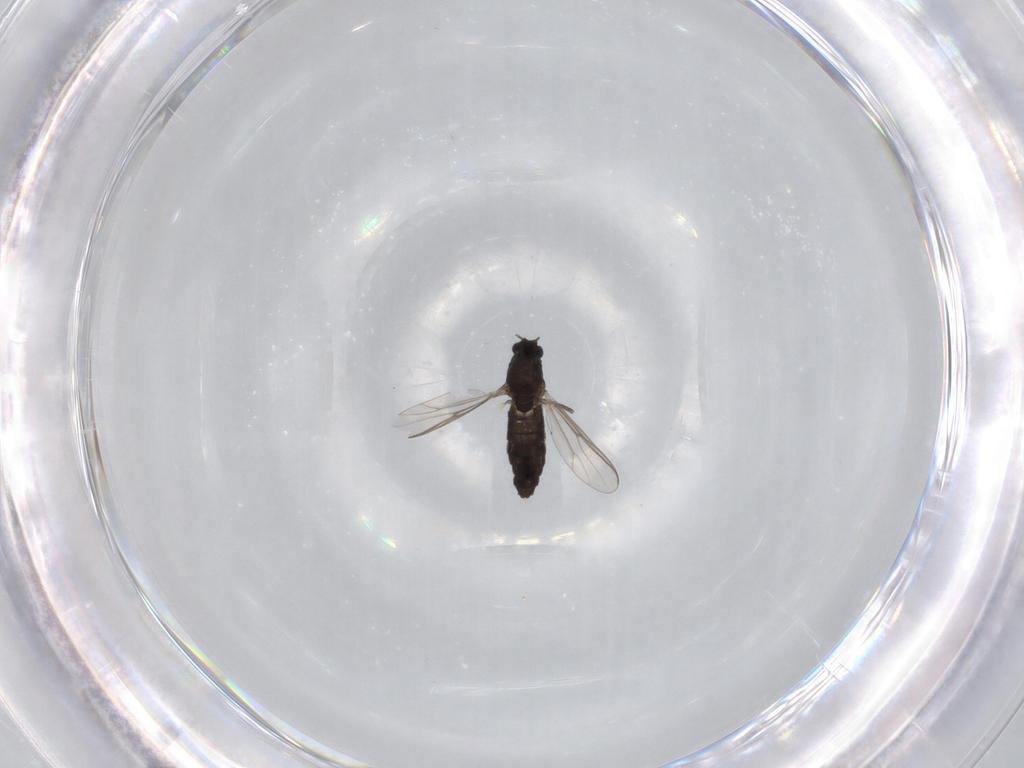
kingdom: Animalia
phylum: Arthropoda
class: Insecta
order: Diptera
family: Chironomidae
